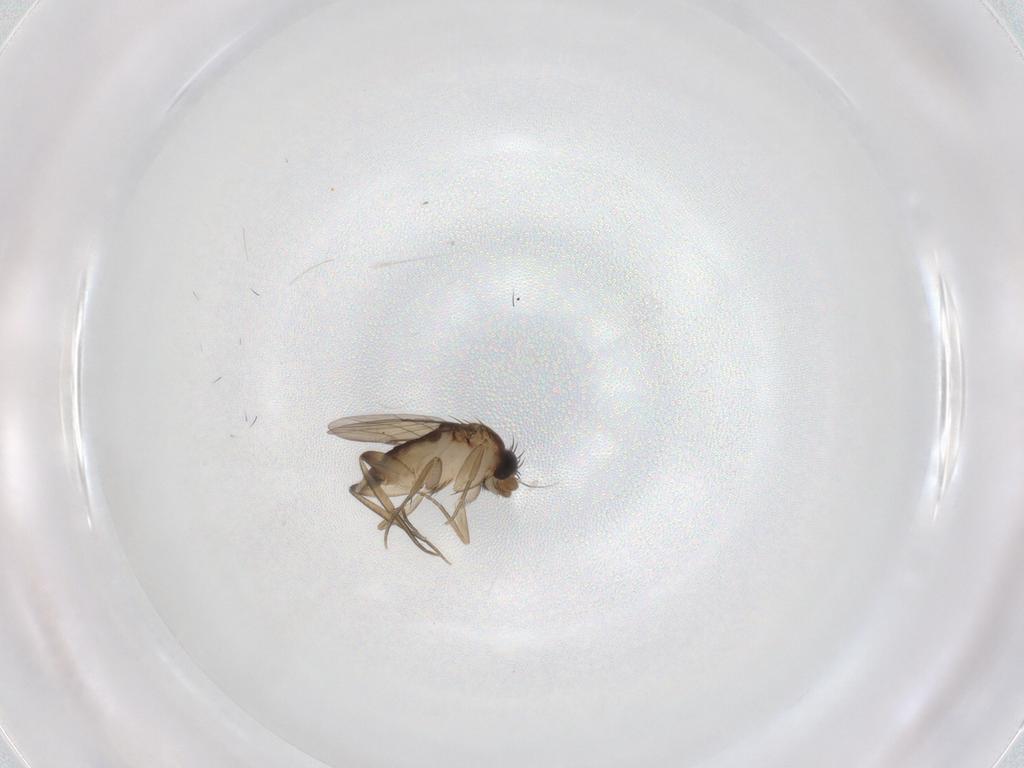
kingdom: Animalia
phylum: Arthropoda
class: Insecta
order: Diptera
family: Phoridae
